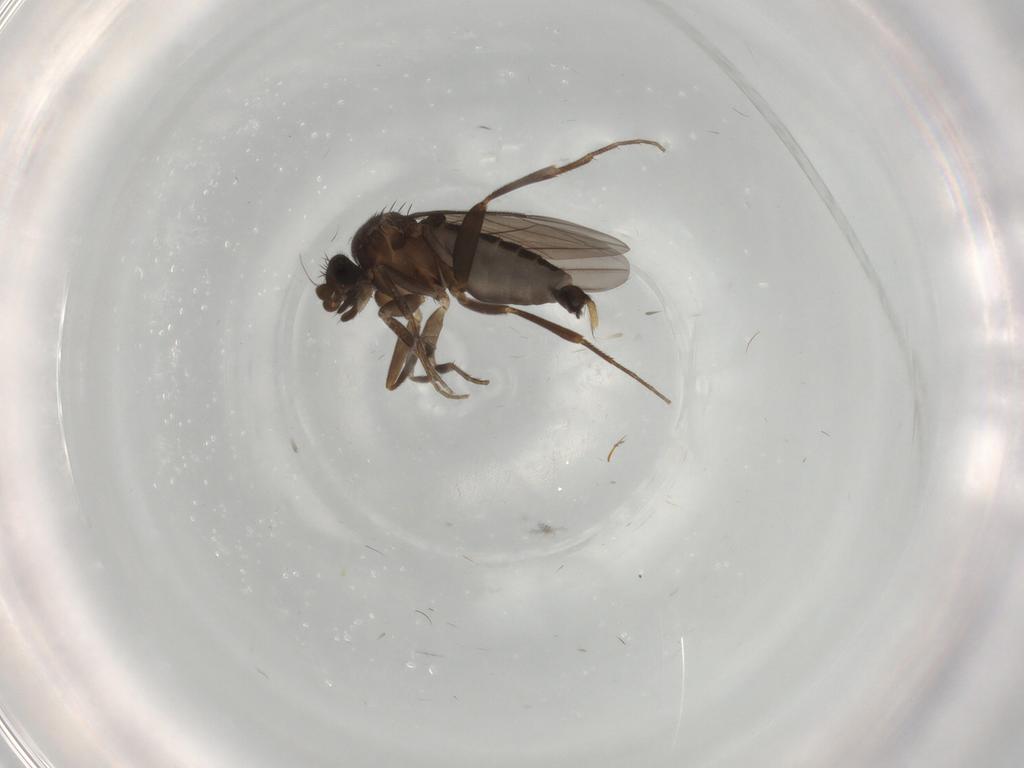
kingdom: Animalia
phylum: Arthropoda
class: Insecta
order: Diptera
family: Phoridae
